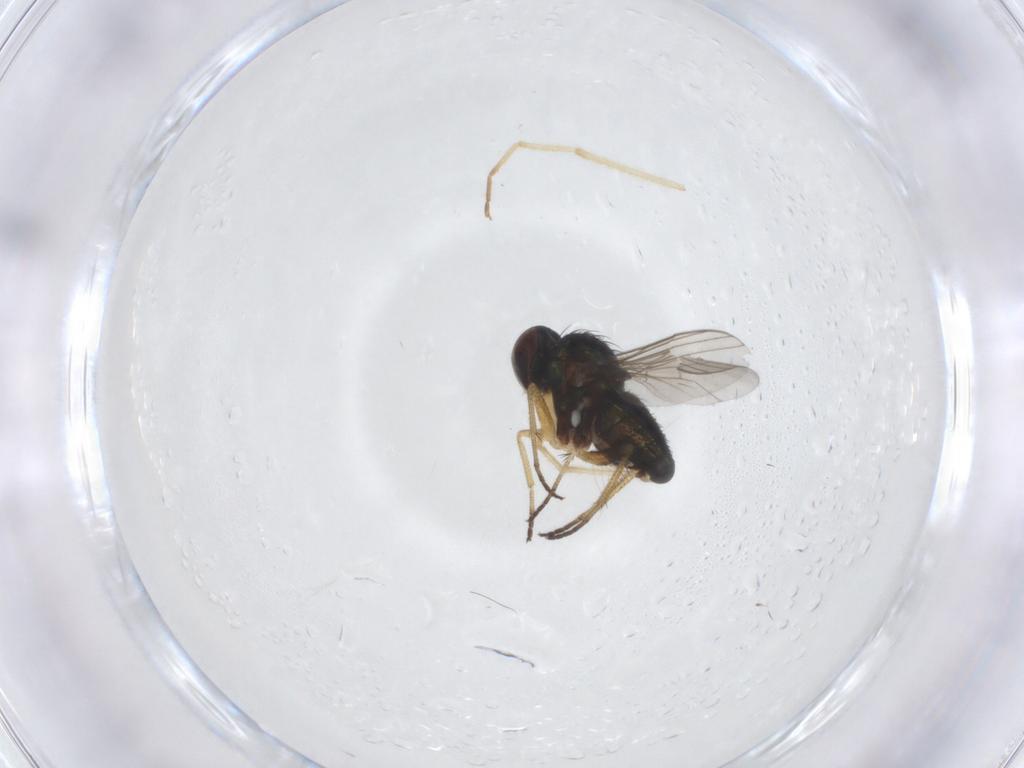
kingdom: Animalia
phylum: Arthropoda
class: Insecta
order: Diptera
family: Dolichopodidae
